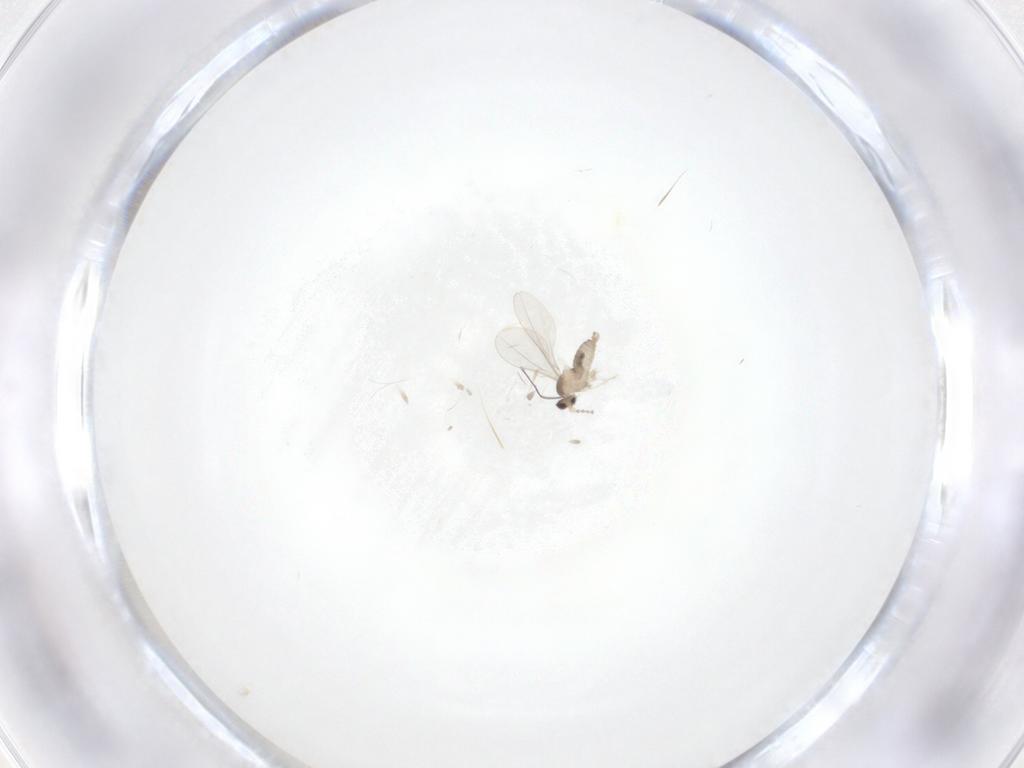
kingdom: Animalia
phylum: Arthropoda
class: Insecta
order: Diptera
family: Cecidomyiidae
